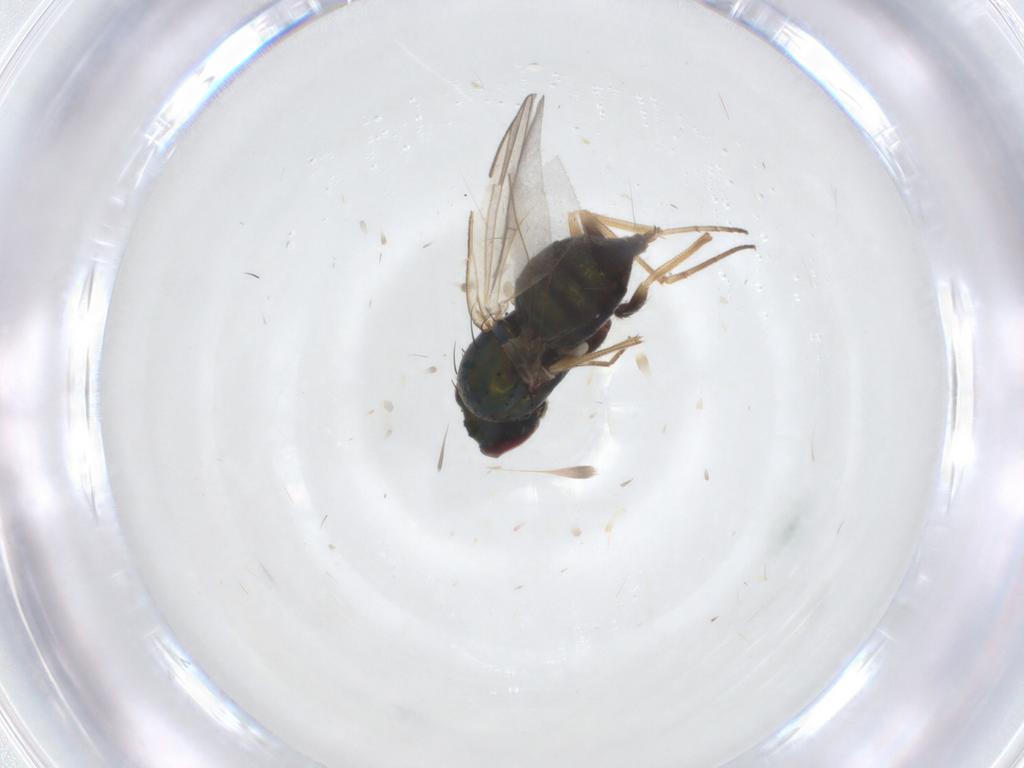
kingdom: Animalia
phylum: Arthropoda
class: Insecta
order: Diptera
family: Dolichopodidae
